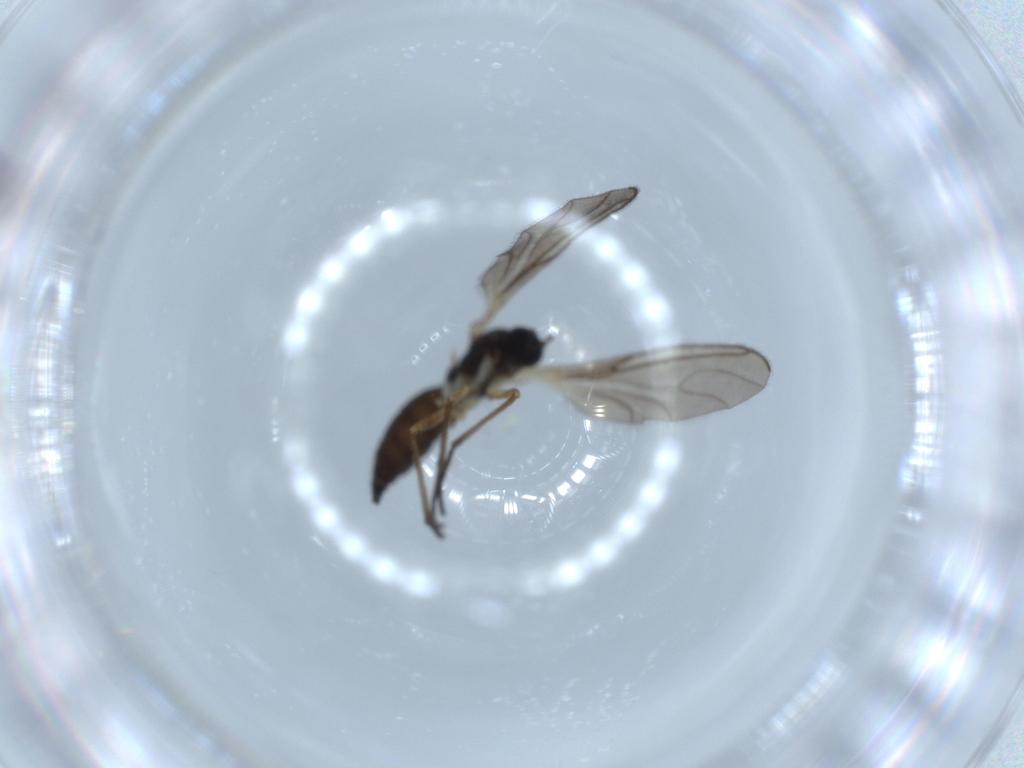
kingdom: Animalia
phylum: Arthropoda
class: Insecta
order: Diptera
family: Sciaridae
